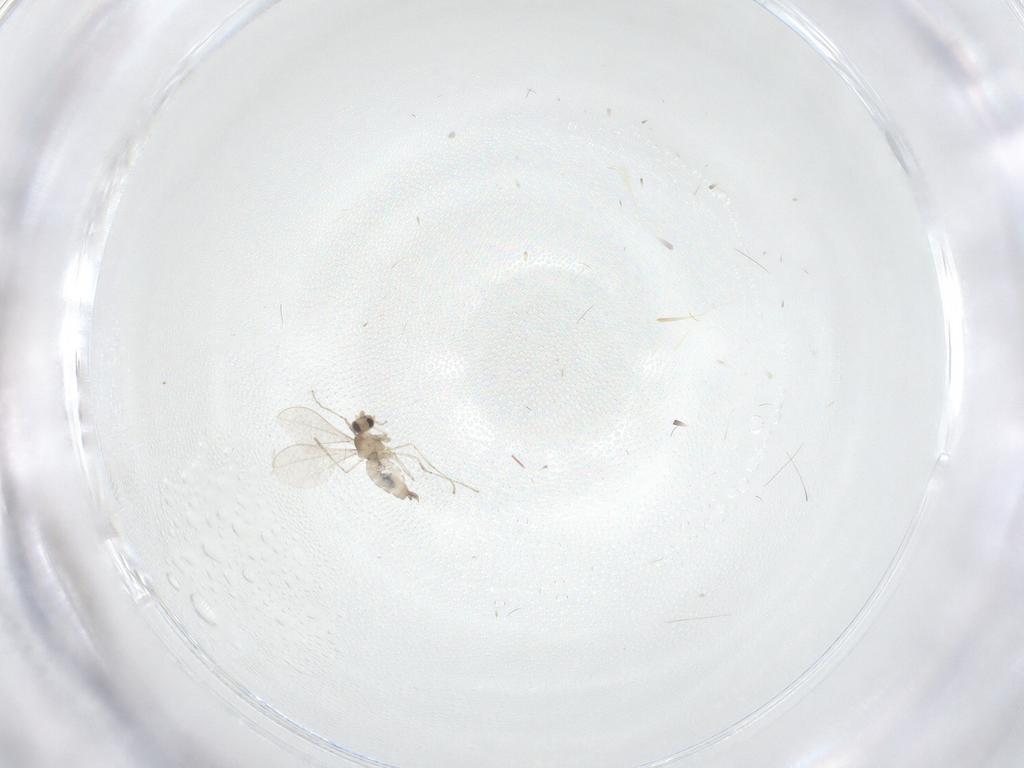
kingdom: Animalia
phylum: Arthropoda
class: Insecta
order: Diptera
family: Cecidomyiidae
